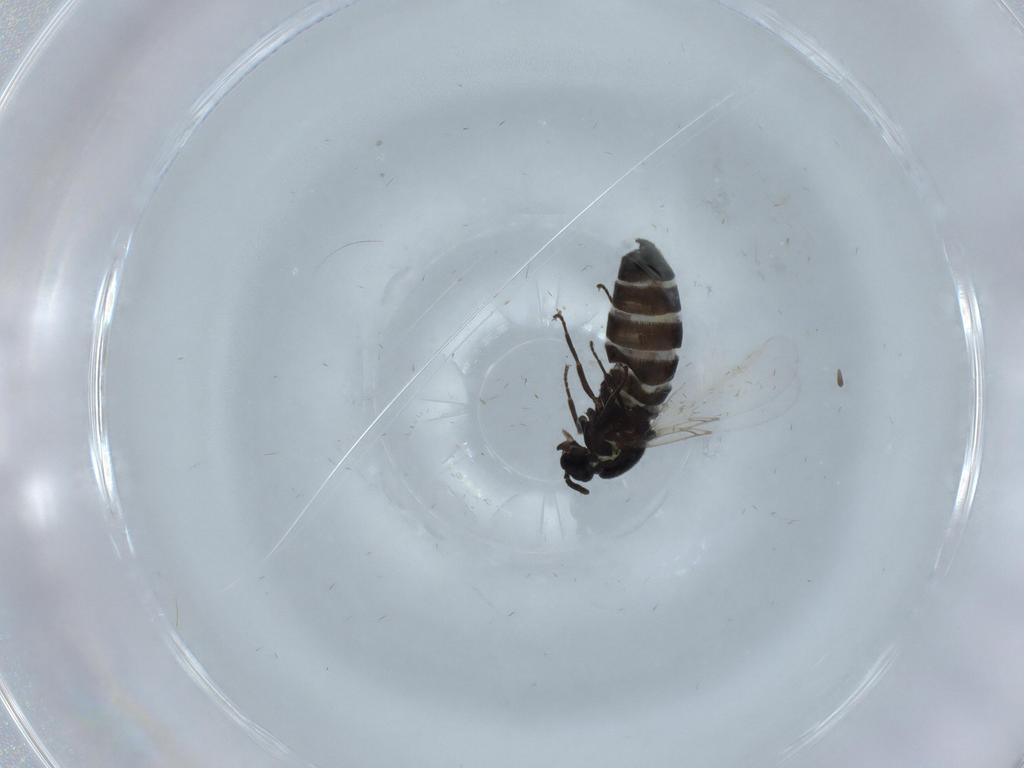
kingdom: Animalia
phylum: Arthropoda
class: Insecta
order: Diptera
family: Scatopsidae
